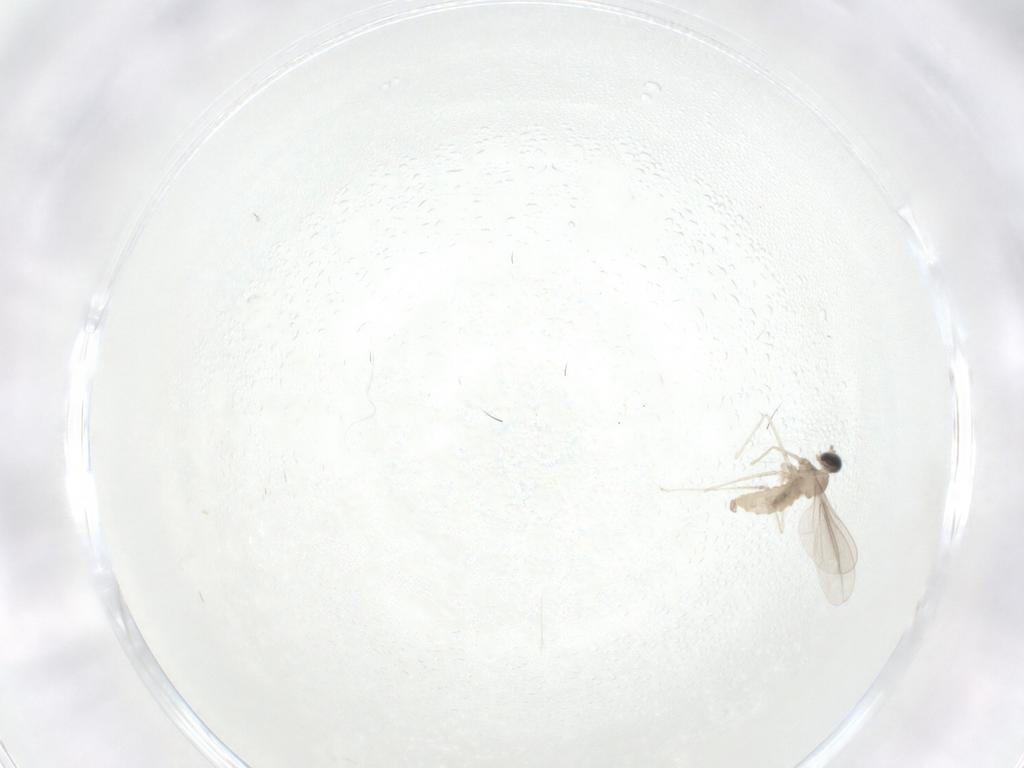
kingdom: Animalia
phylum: Arthropoda
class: Insecta
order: Diptera
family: Chironomidae
